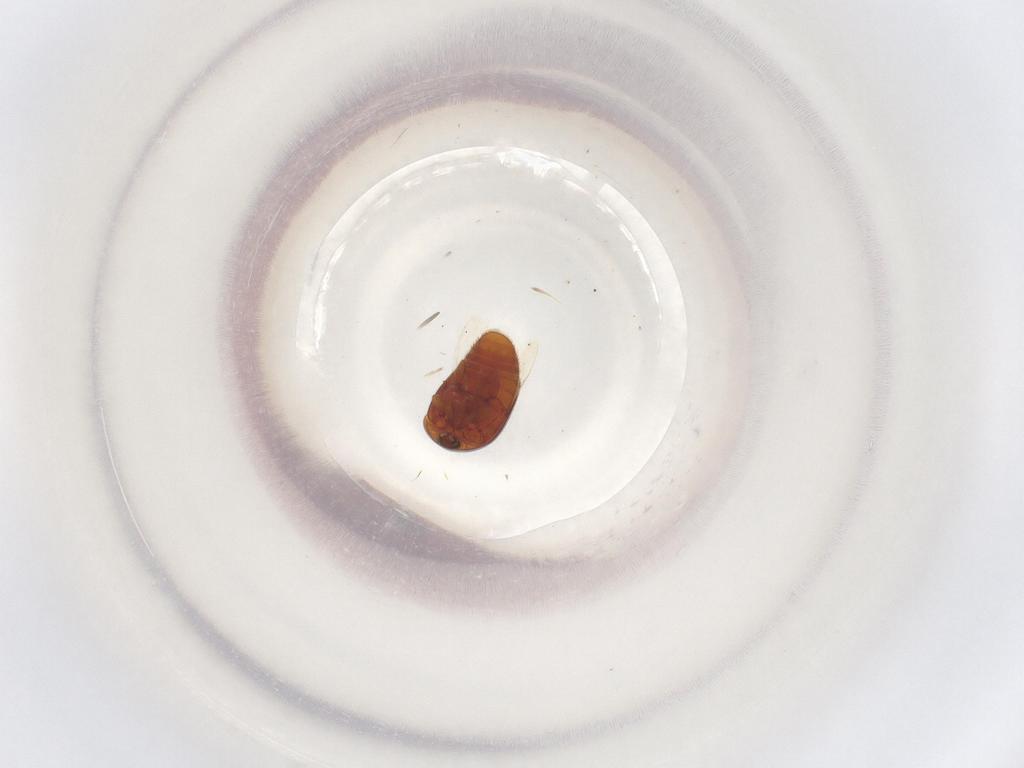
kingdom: Animalia
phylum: Arthropoda
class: Insecta
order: Coleoptera
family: Corylophidae
